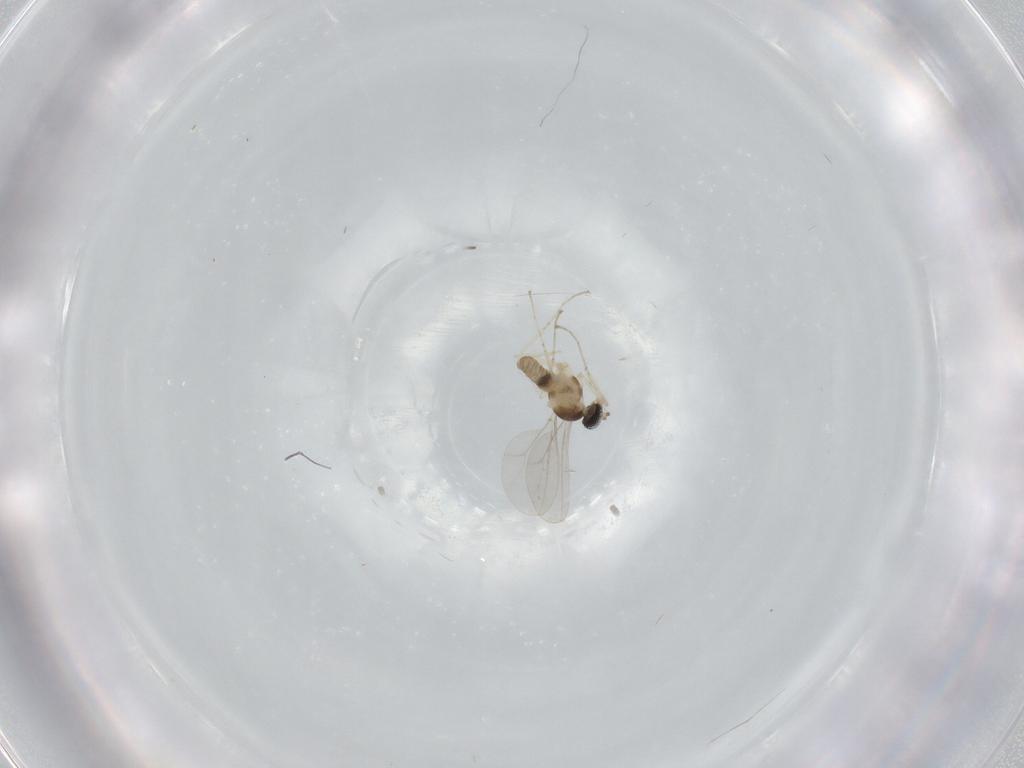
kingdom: Animalia
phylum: Arthropoda
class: Insecta
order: Diptera
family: Cecidomyiidae
